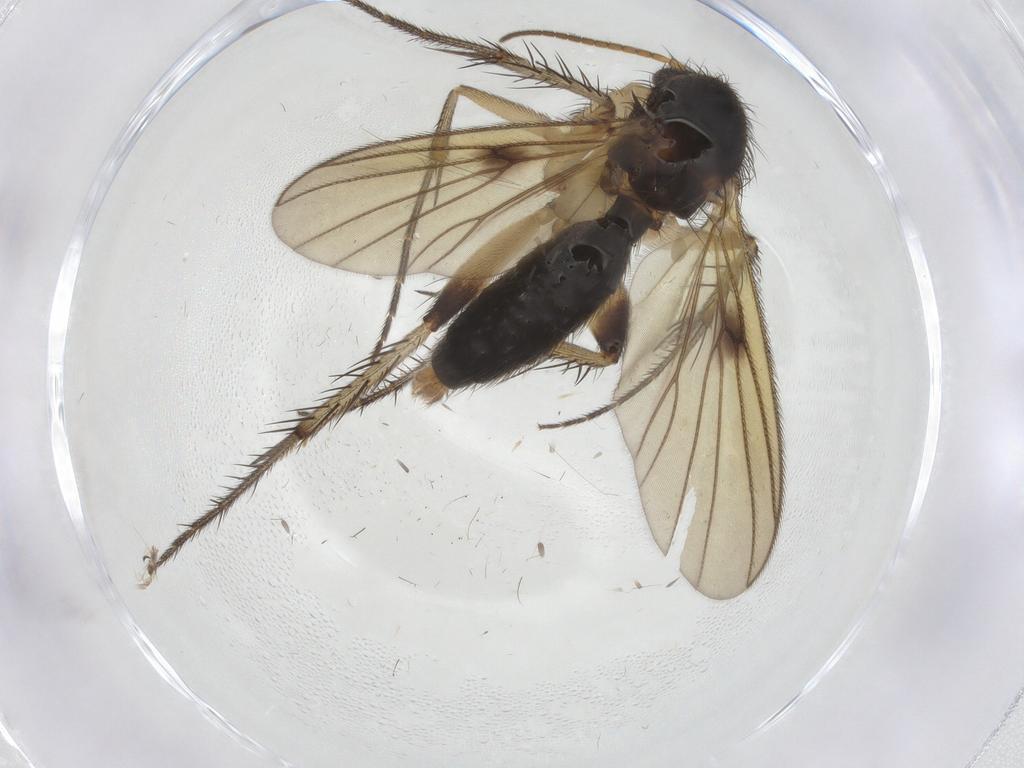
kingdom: Animalia
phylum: Arthropoda
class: Insecta
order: Diptera
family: Cecidomyiidae
